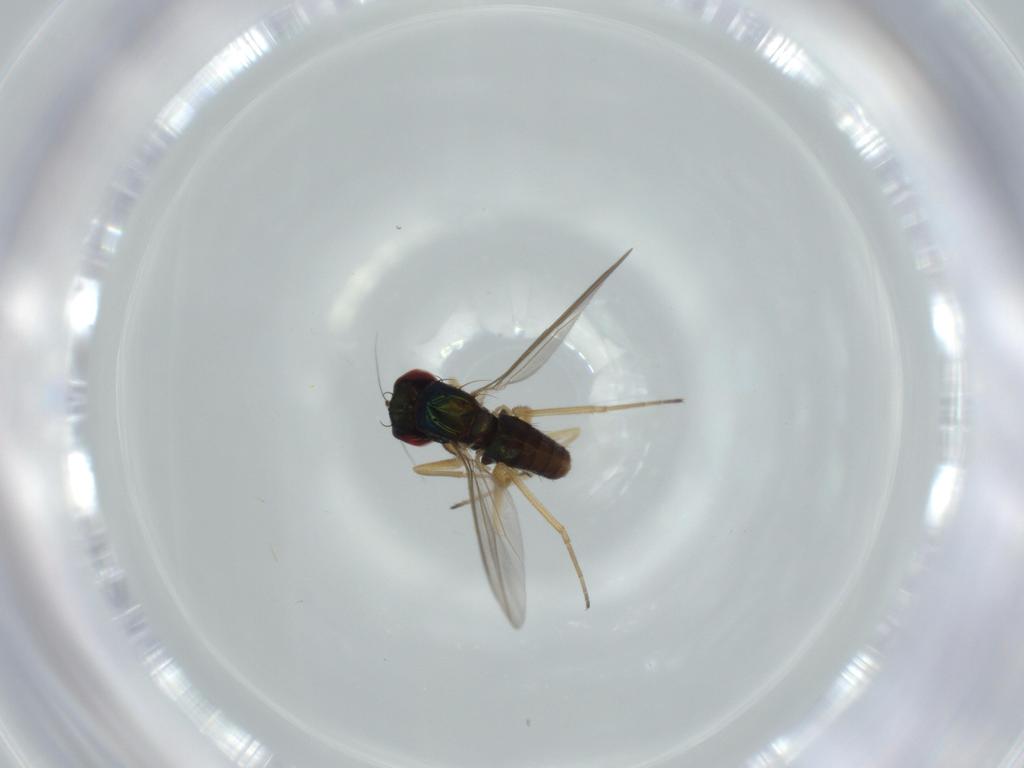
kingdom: Animalia
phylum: Arthropoda
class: Insecta
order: Diptera
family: Dolichopodidae
